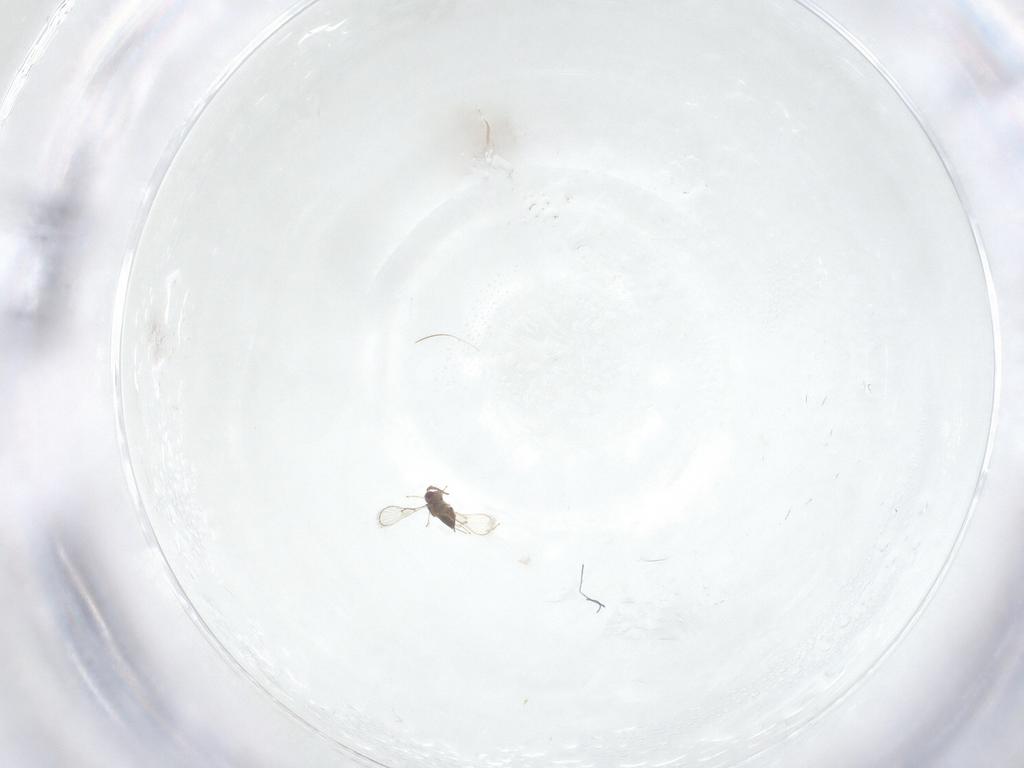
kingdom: Animalia
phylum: Arthropoda
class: Insecta
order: Hymenoptera
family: Trichogrammatidae
